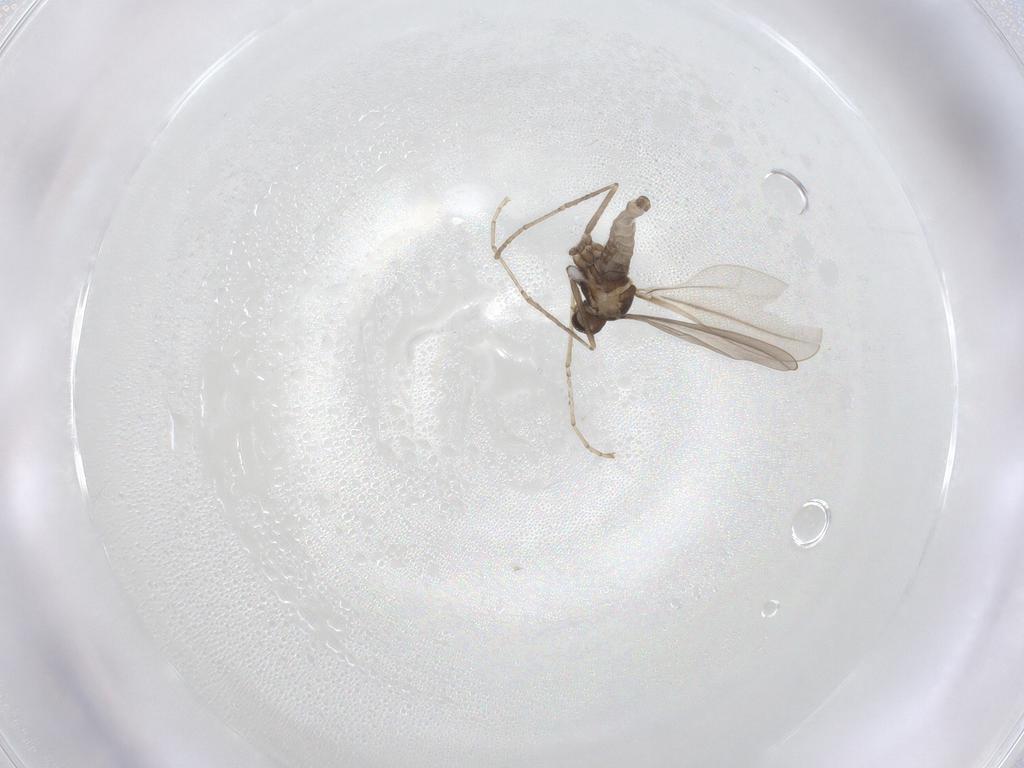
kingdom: Animalia
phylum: Arthropoda
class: Insecta
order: Diptera
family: Cecidomyiidae
